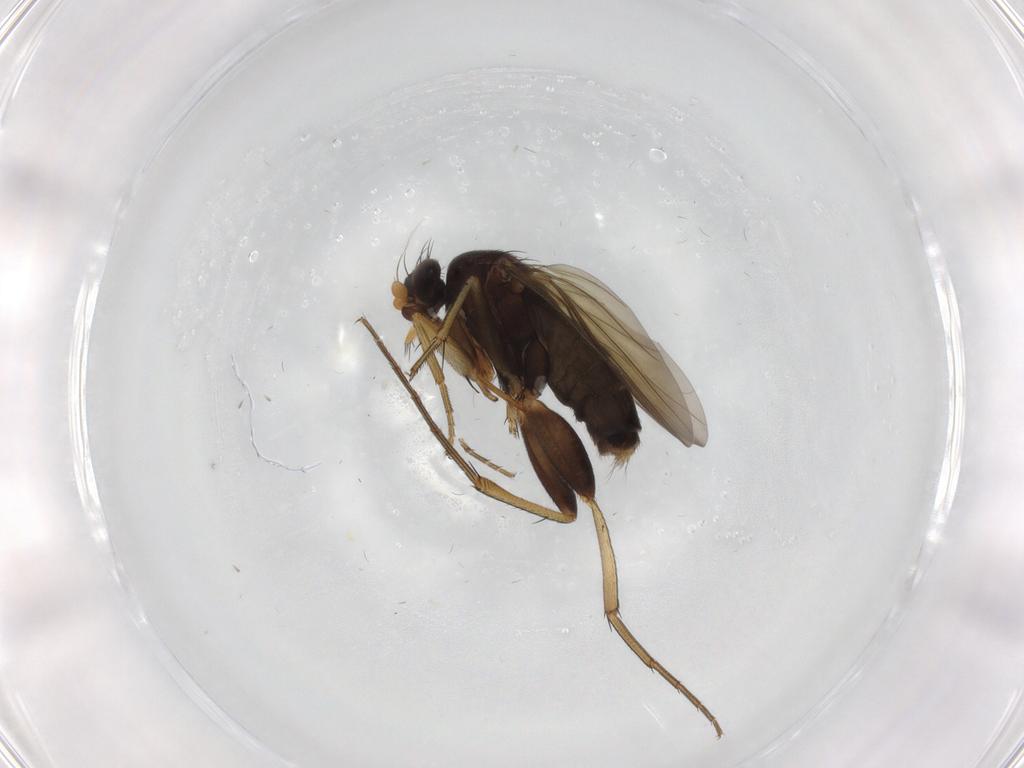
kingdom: Animalia
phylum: Arthropoda
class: Insecta
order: Diptera
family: Phoridae
